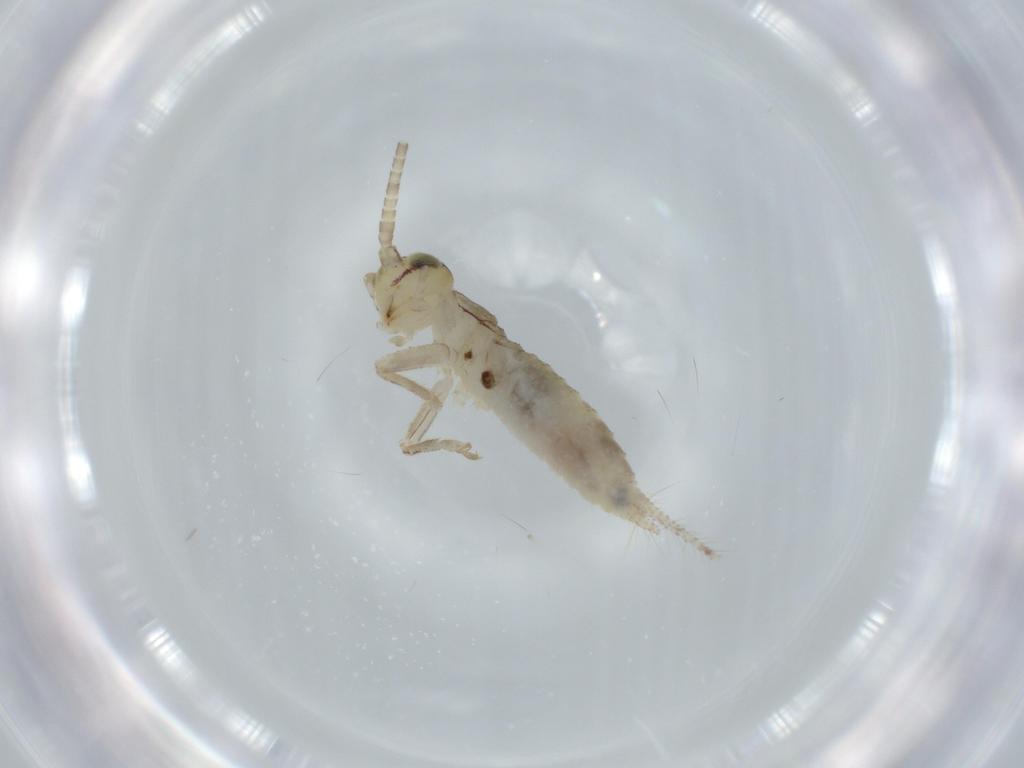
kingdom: Animalia
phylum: Arthropoda
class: Insecta
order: Orthoptera
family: Gryllidae
